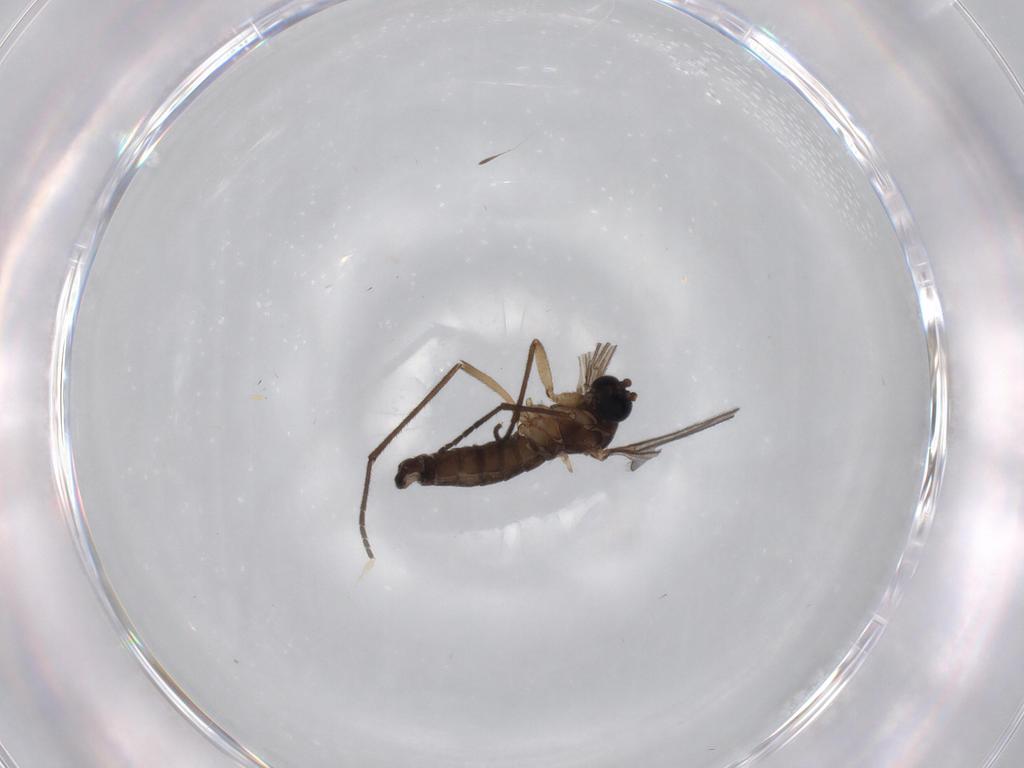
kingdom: Animalia
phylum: Arthropoda
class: Insecta
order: Diptera
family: Sciaridae
